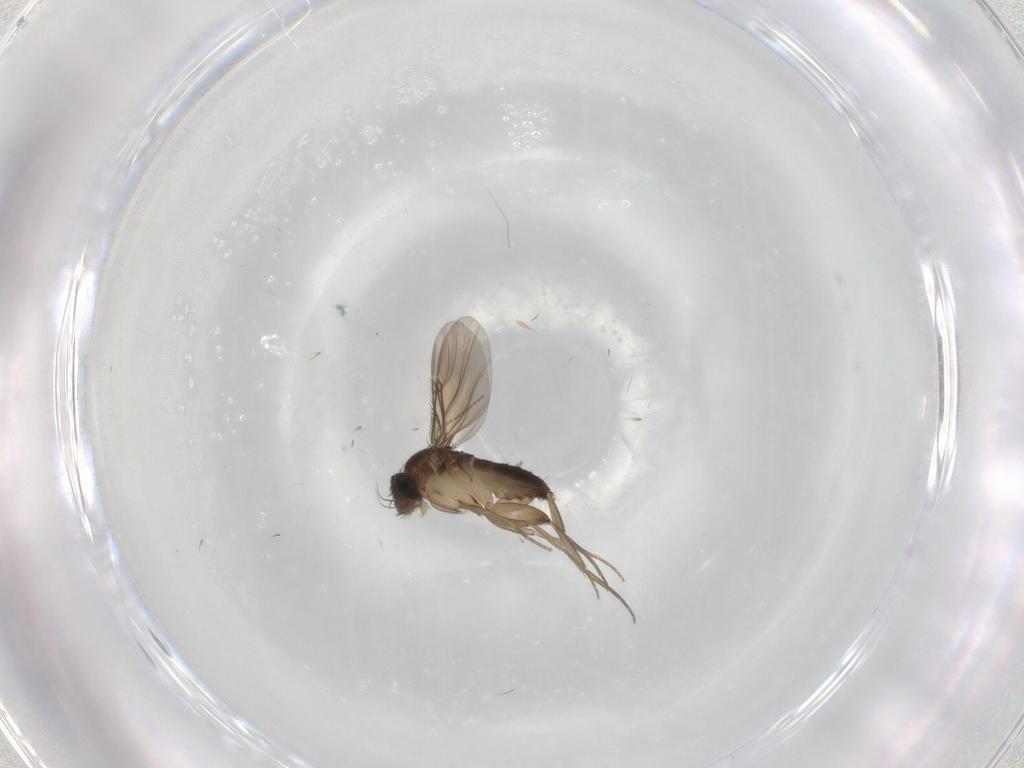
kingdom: Animalia
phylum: Arthropoda
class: Insecta
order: Diptera
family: Phoridae
